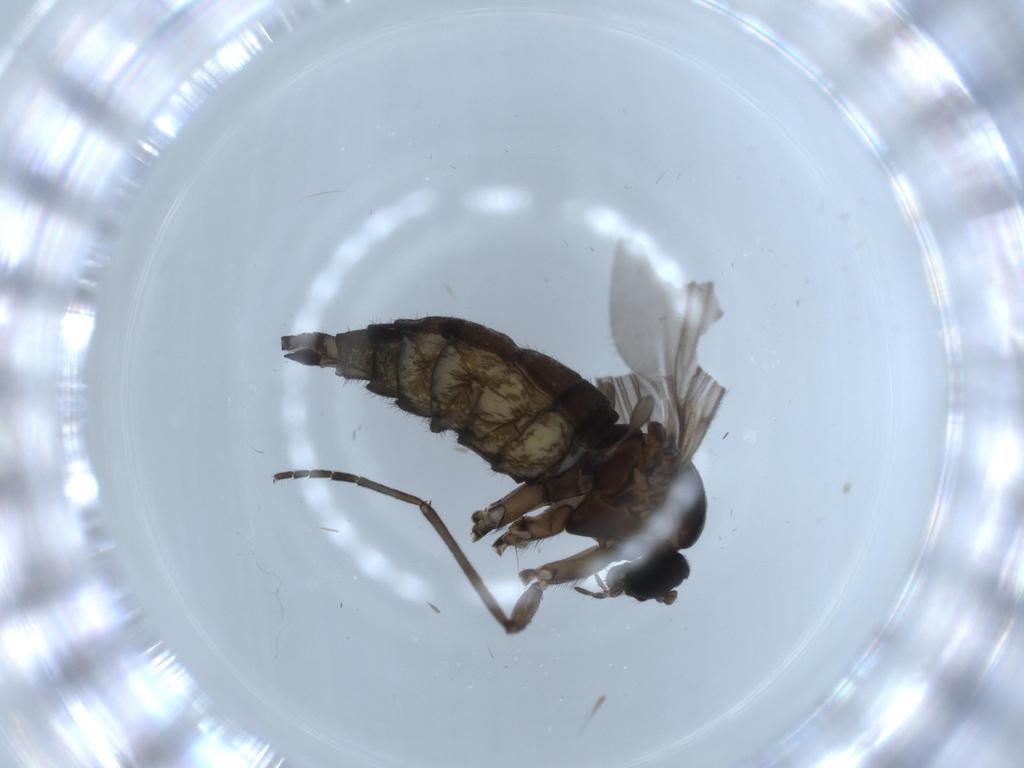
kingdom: Animalia
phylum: Arthropoda
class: Insecta
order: Diptera
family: Sciaridae
